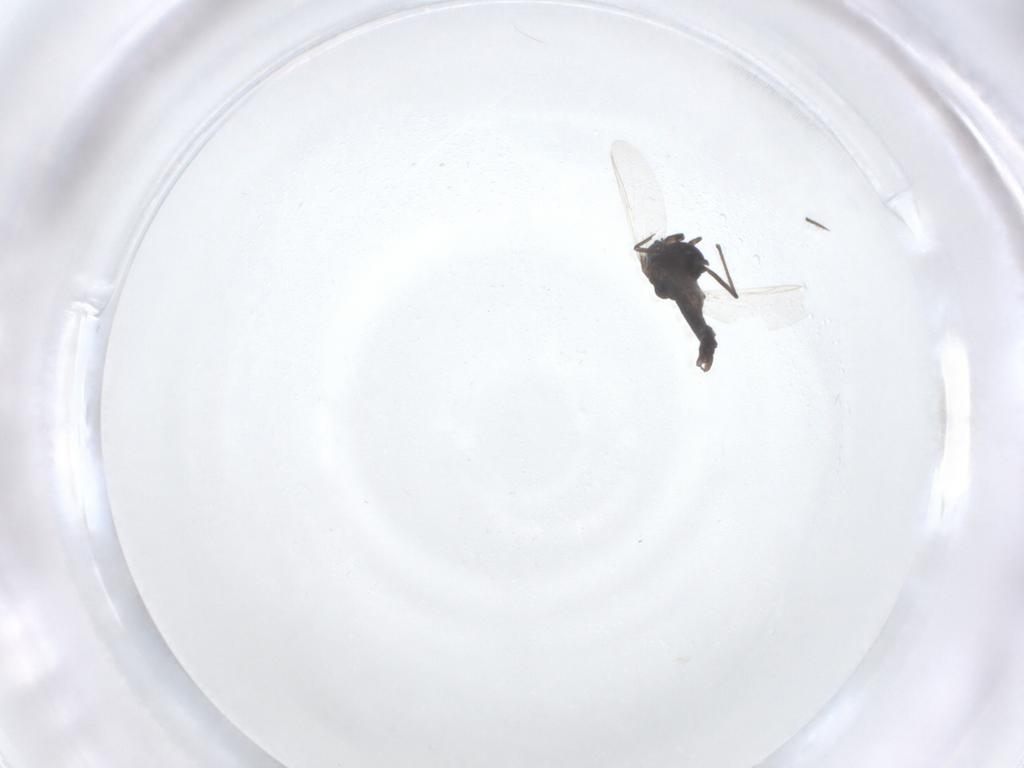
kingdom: Animalia
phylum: Arthropoda
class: Insecta
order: Diptera
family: Chironomidae
